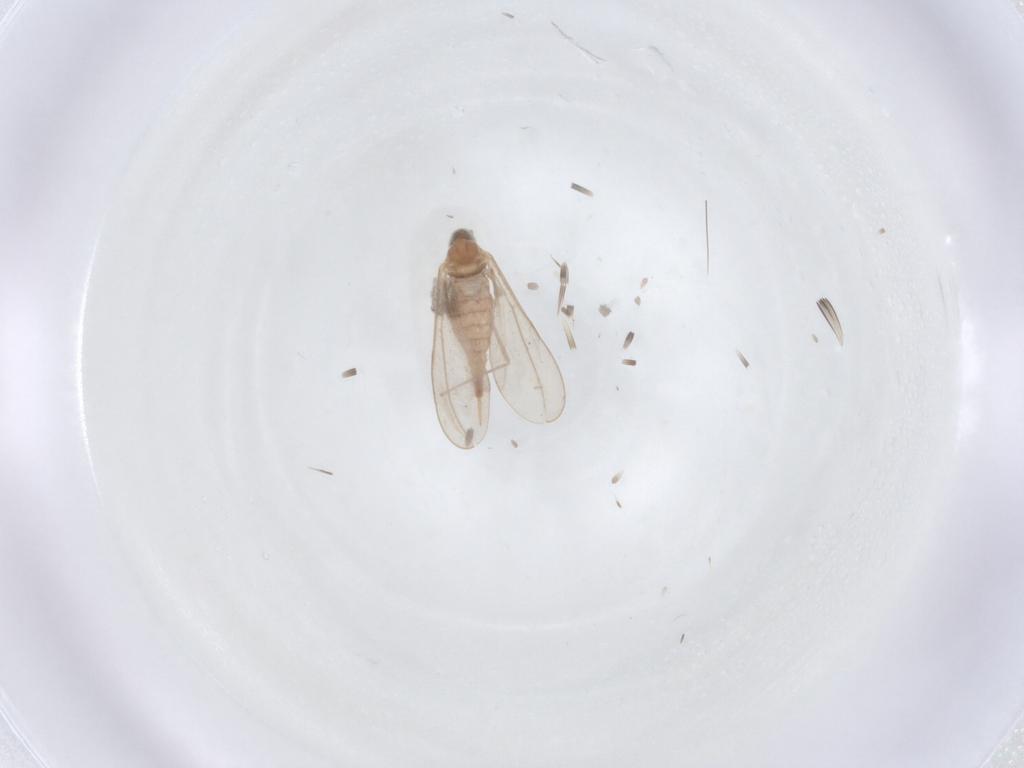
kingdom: Animalia
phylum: Arthropoda
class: Insecta
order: Diptera
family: Cecidomyiidae
